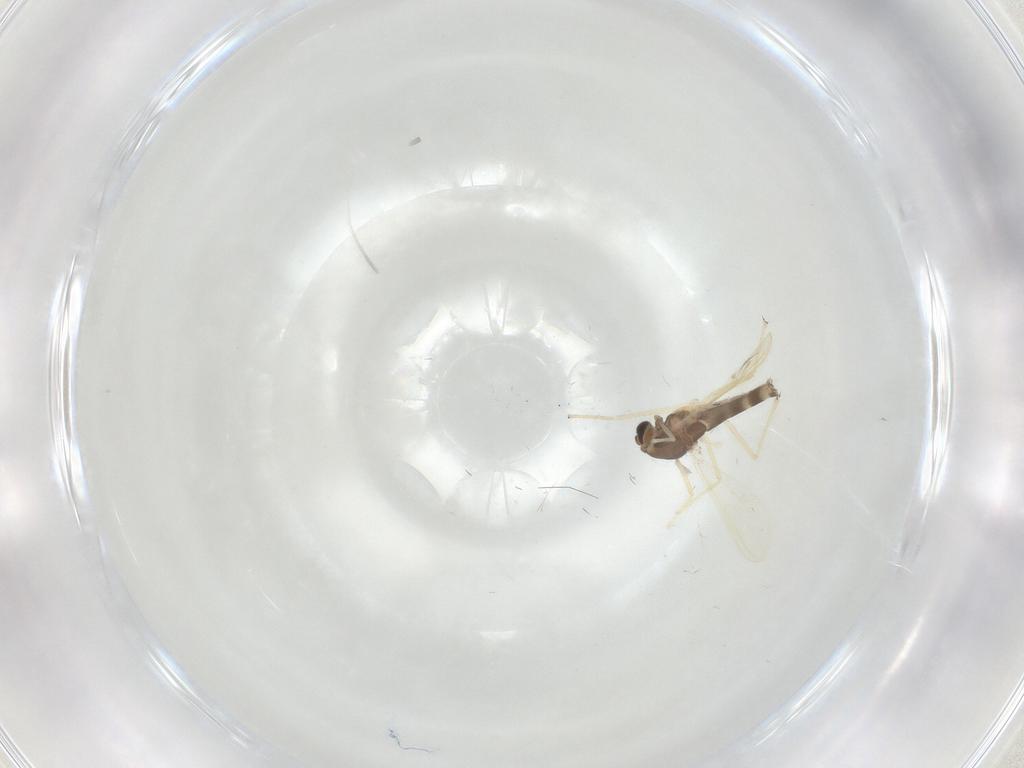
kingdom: Animalia
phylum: Arthropoda
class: Insecta
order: Diptera
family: Chironomidae
